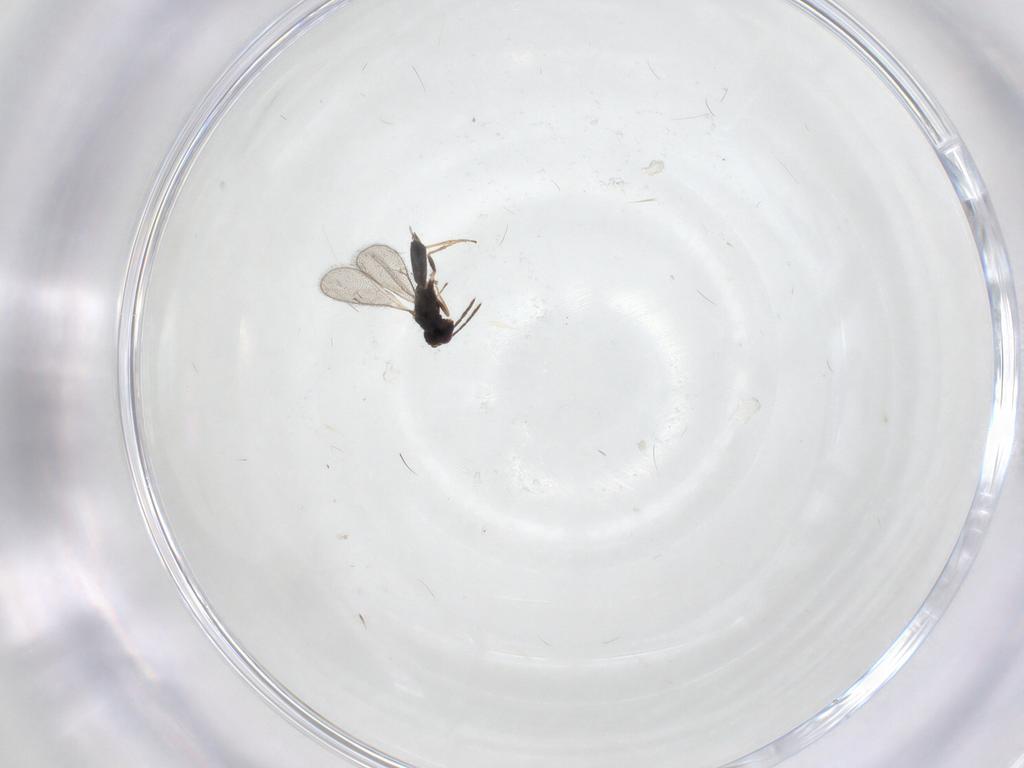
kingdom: Animalia
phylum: Arthropoda
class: Insecta
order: Hymenoptera
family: Eulophidae
